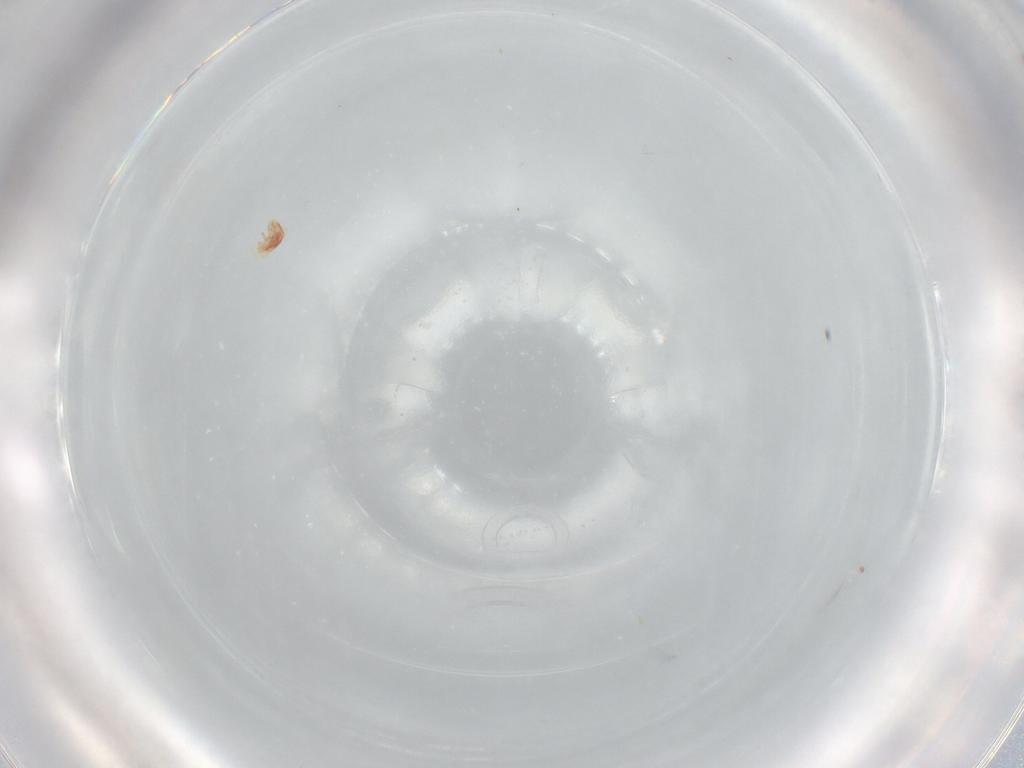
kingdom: Animalia
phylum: Arthropoda
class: Arachnida
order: Mesostigmata
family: Phytoseiidae
